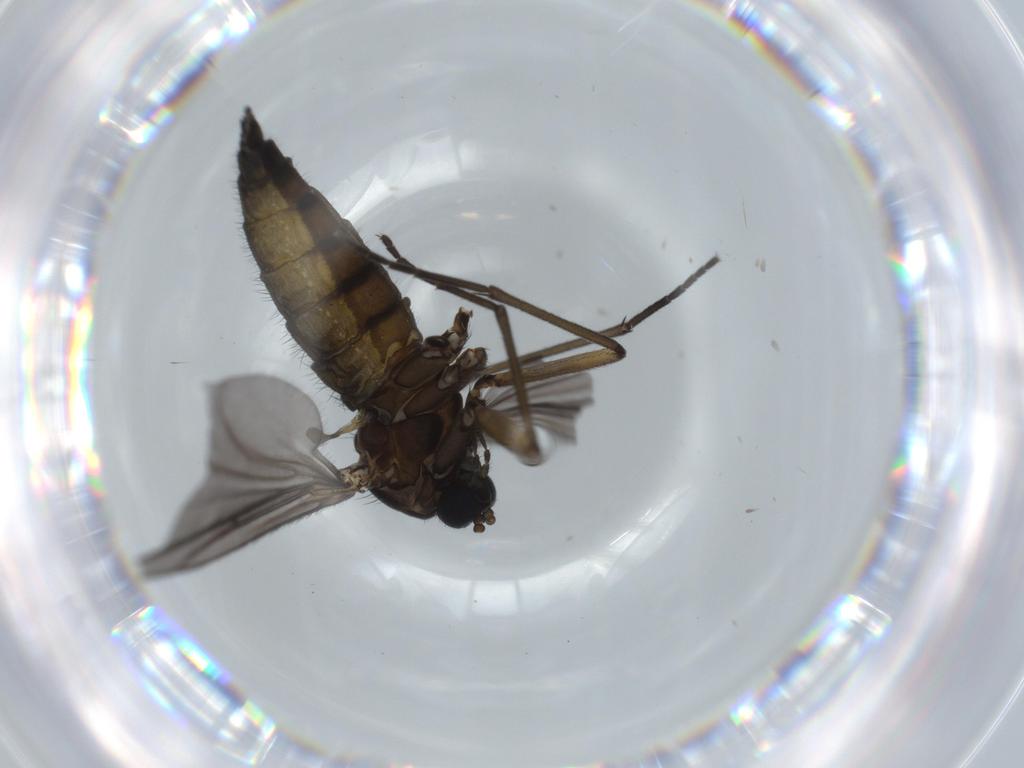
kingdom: Animalia
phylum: Arthropoda
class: Insecta
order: Diptera
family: Sciaridae
